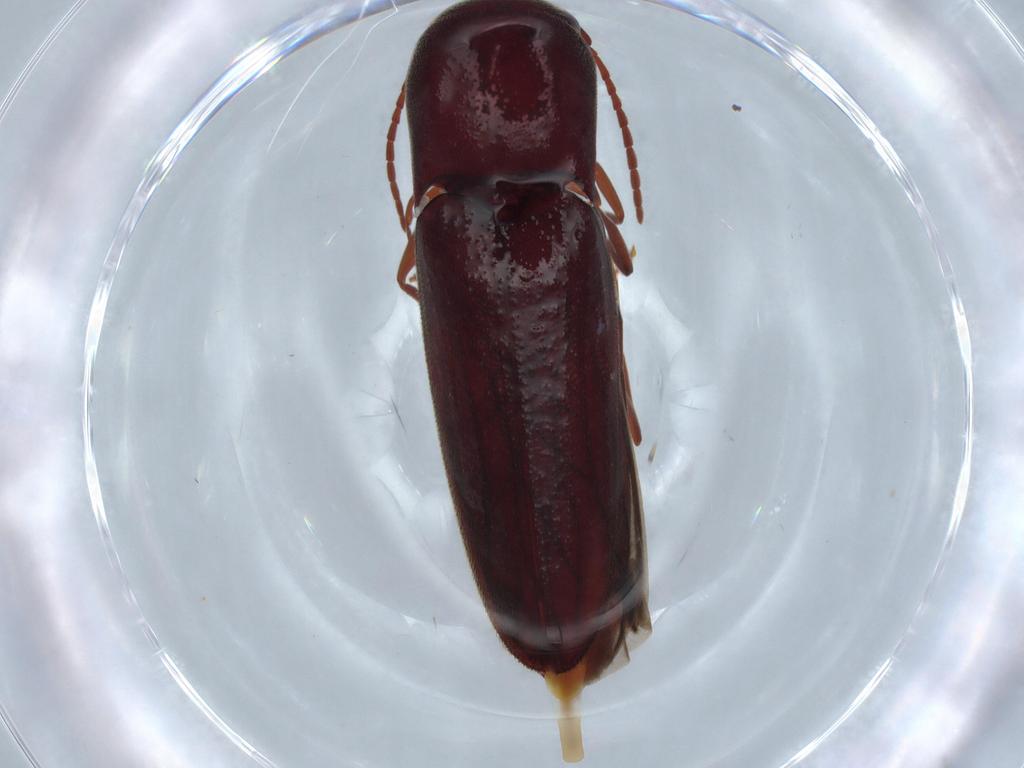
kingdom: Animalia
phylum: Arthropoda
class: Insecta
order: Coleoptera
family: Eucnemidae
